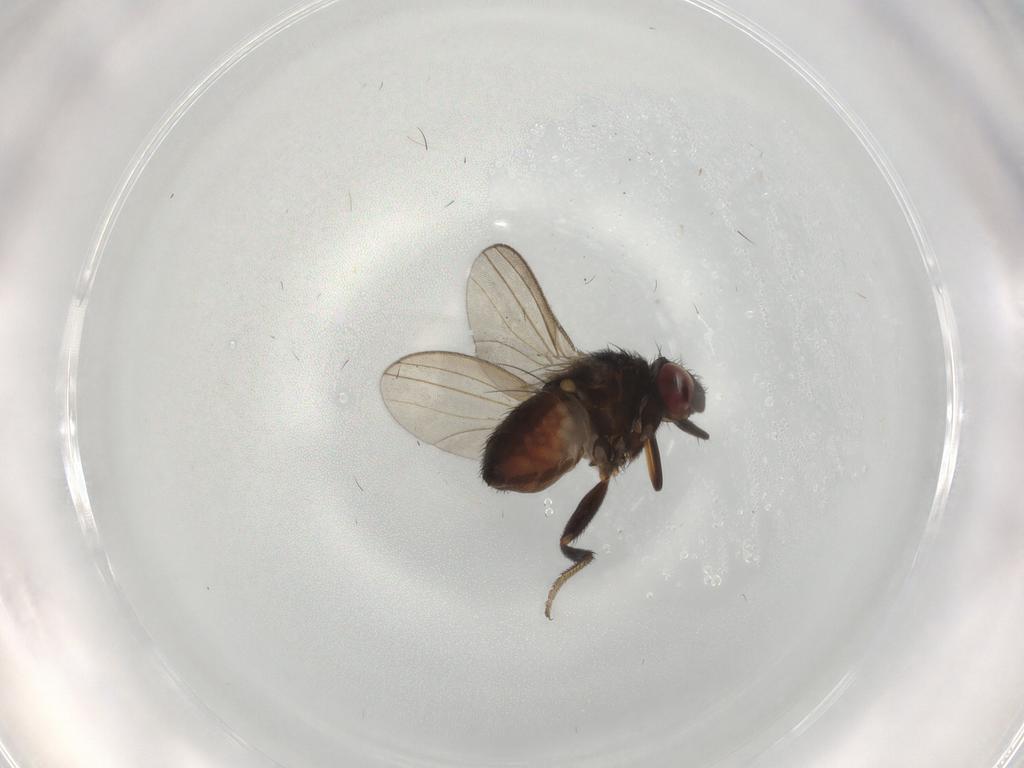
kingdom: Animalia
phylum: Arthropoda
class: Insecta
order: Diptera
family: Milichiidae
